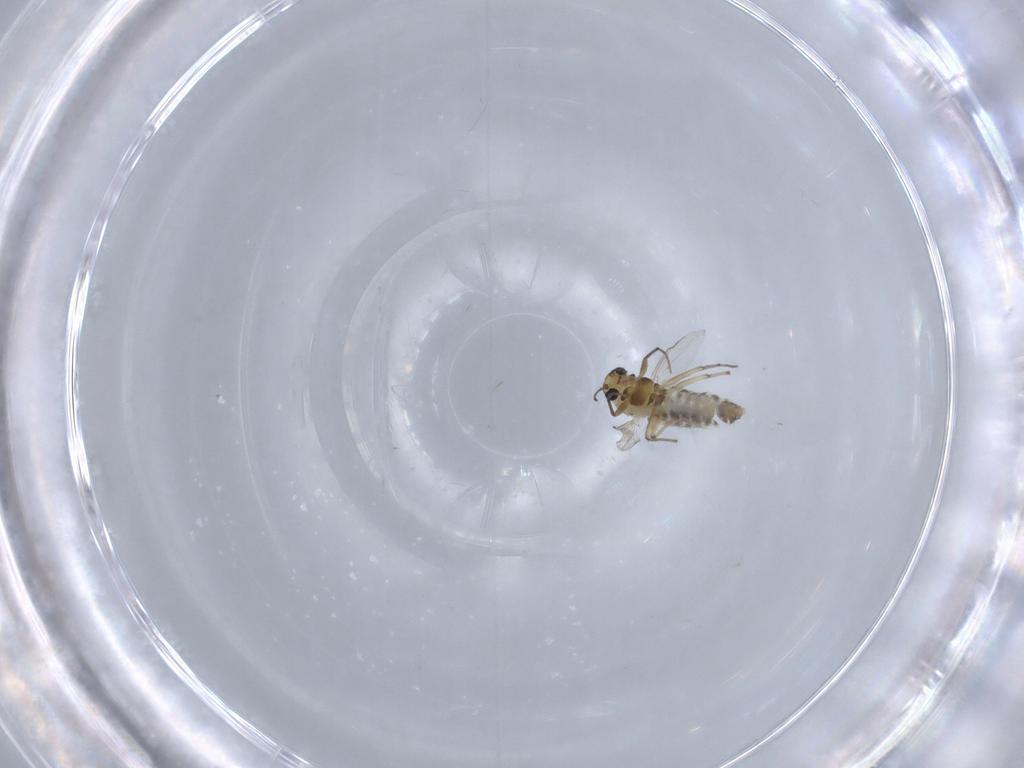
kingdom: Animalia
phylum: Arthropoda
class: Insecta
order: Diptera
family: Chironomidae
